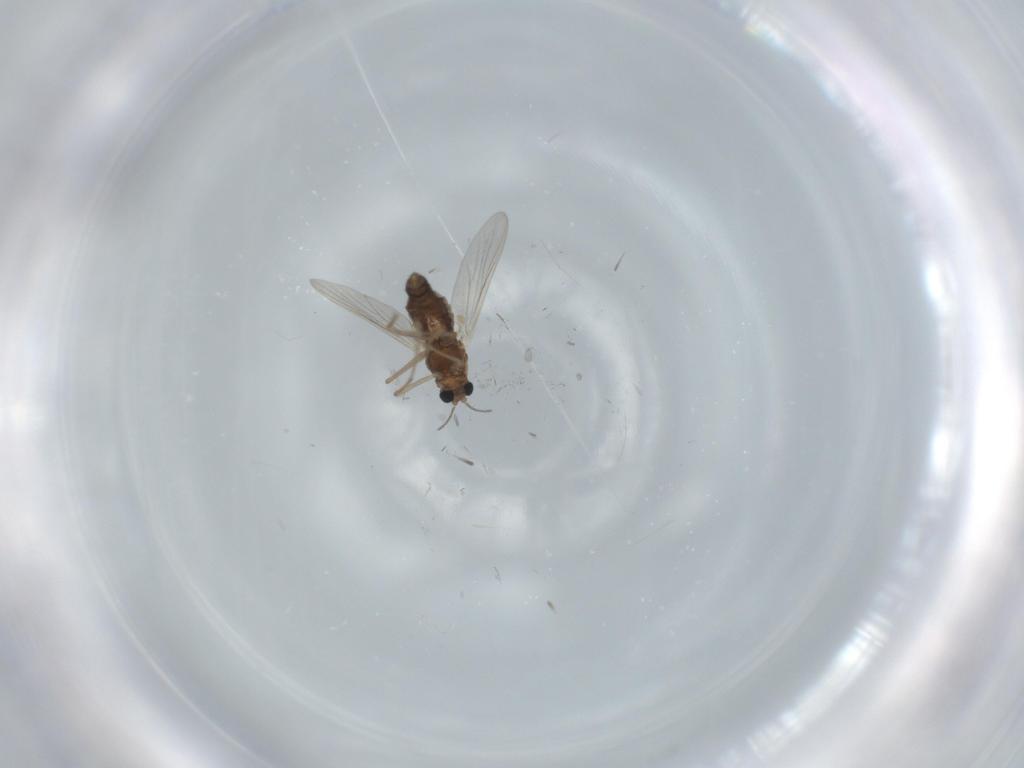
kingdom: Animalia
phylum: Arthropoda
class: Insecta
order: Diptera
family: Chironomidae
